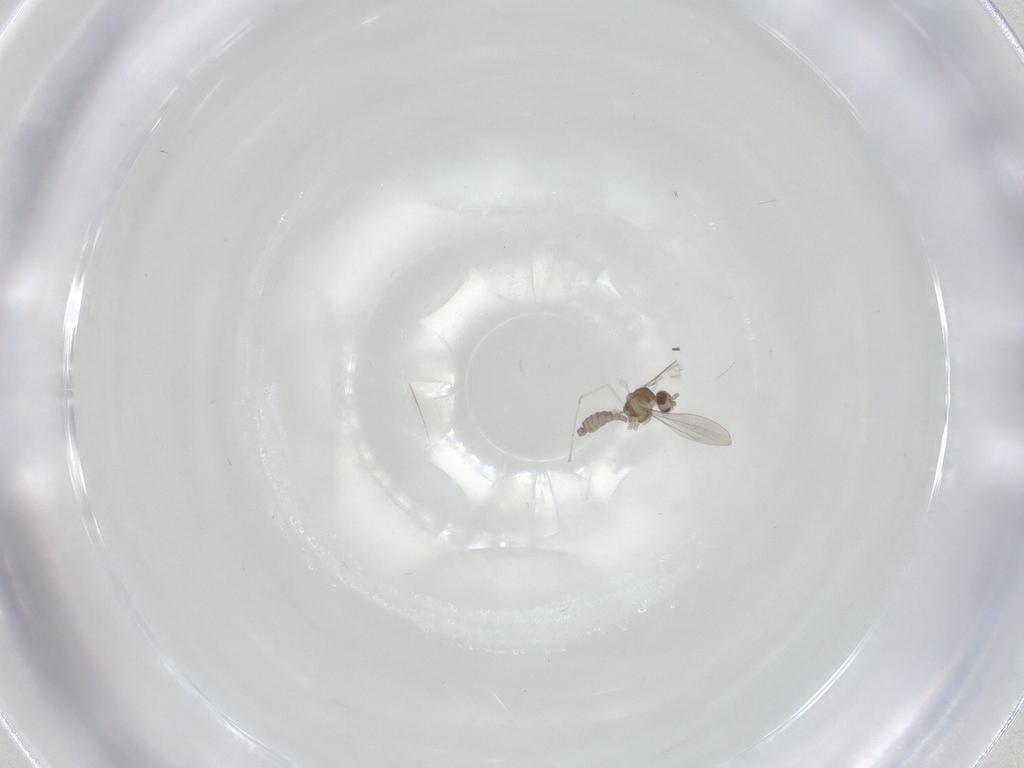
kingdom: Animalia
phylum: Arthropoda
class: Insecta
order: Diptera
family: Cecidomyiidae
